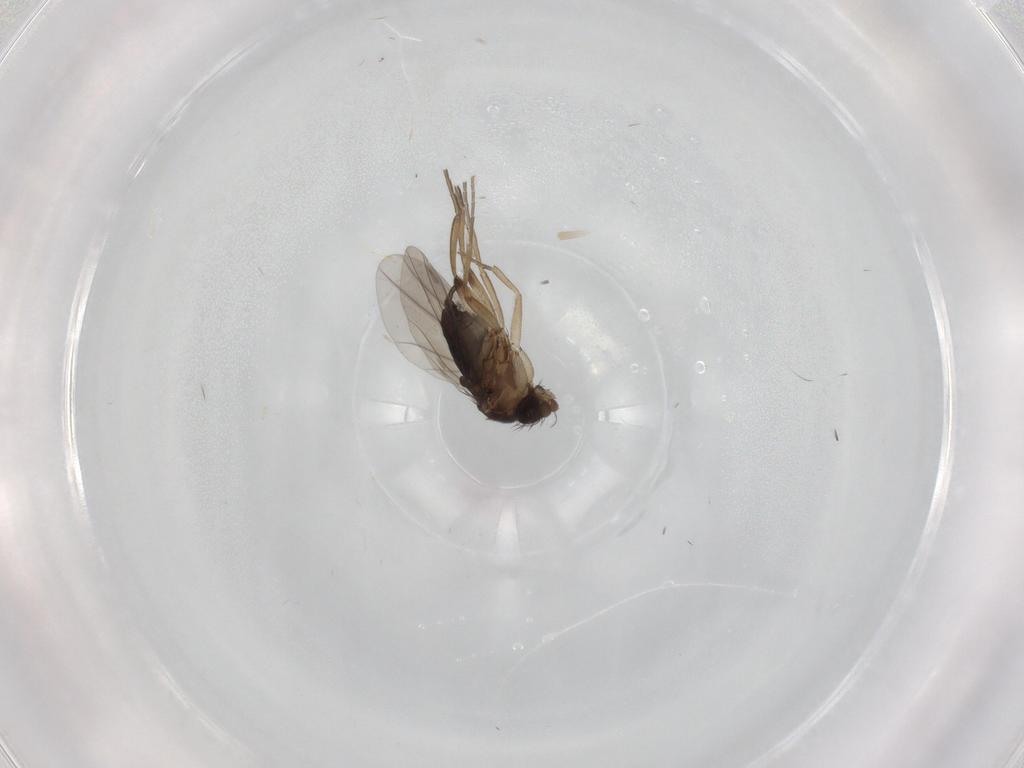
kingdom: Animalia
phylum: Arthropoda
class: Insecta
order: Diptera
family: Phoridae
